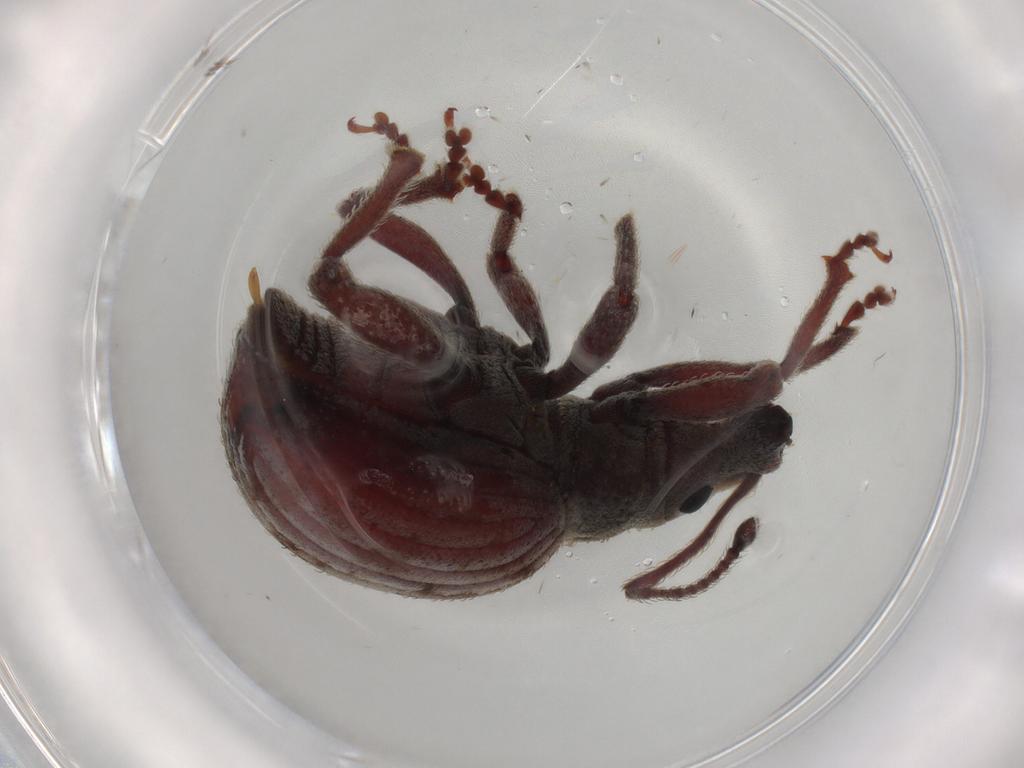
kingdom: Animalia
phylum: Arthropoda
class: Insecta
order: Coleoptera
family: Curculionidae
